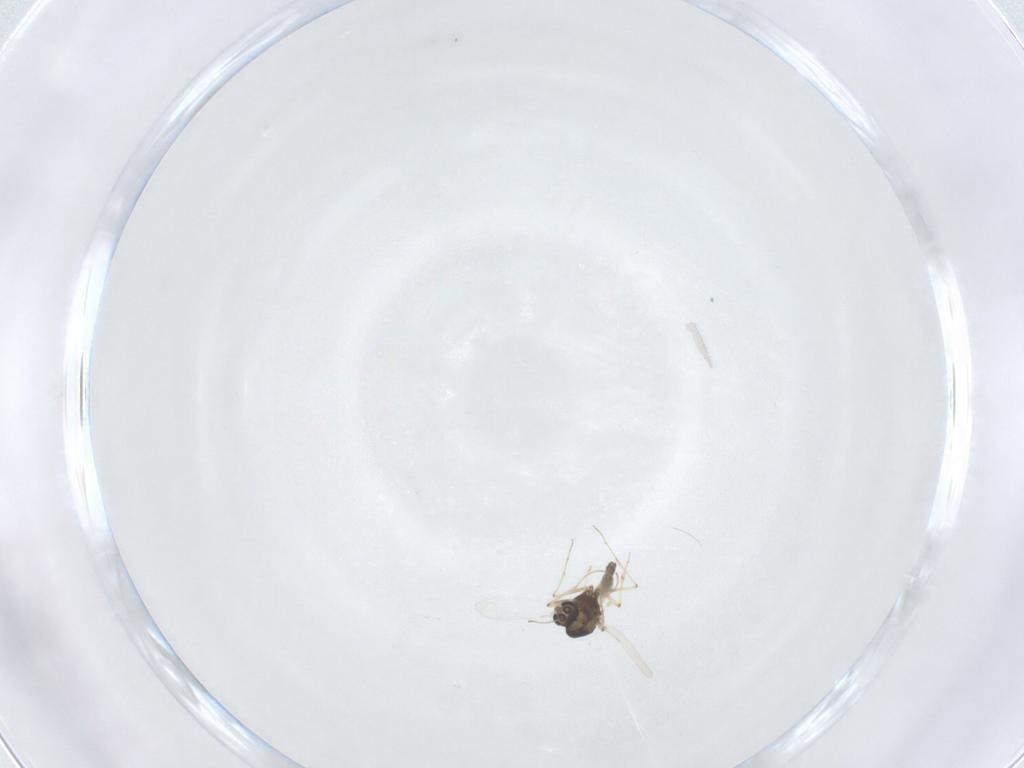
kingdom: Animalia
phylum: Arthropoda
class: Insecta
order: Diptera
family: Chironomidae
